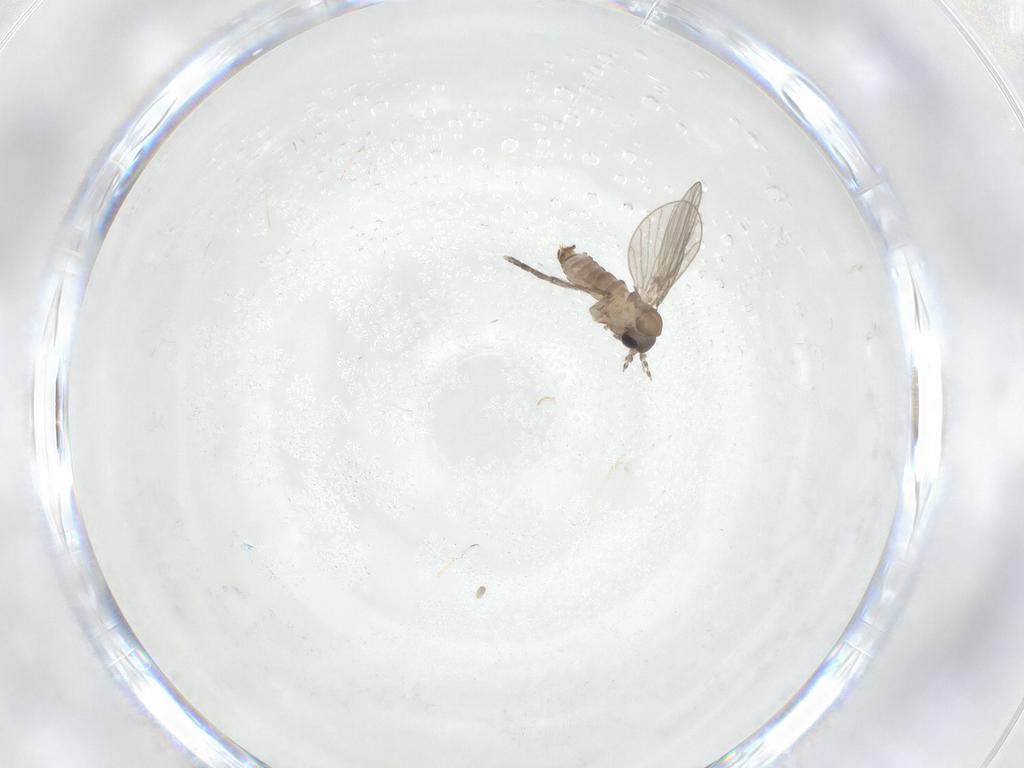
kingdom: Animalia
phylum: Arthropoda
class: Insecta
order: Diptera
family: Psychodidae
